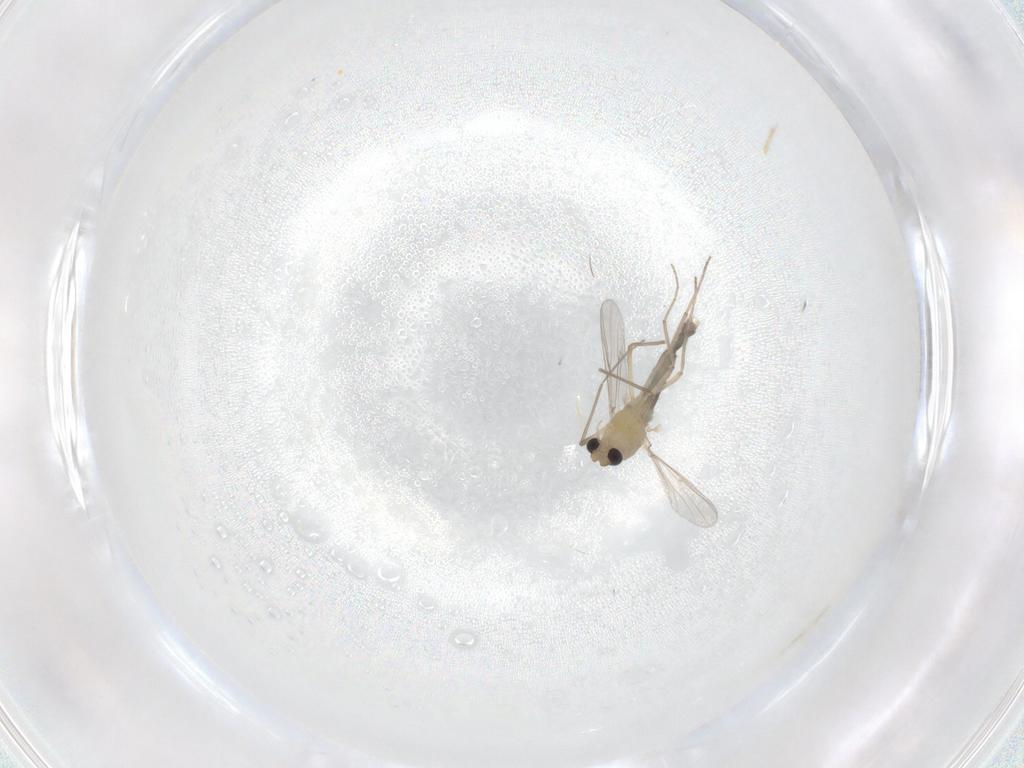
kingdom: Animalia
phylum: Arthropoda
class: Insecta
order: Diptera
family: Chironomidae
